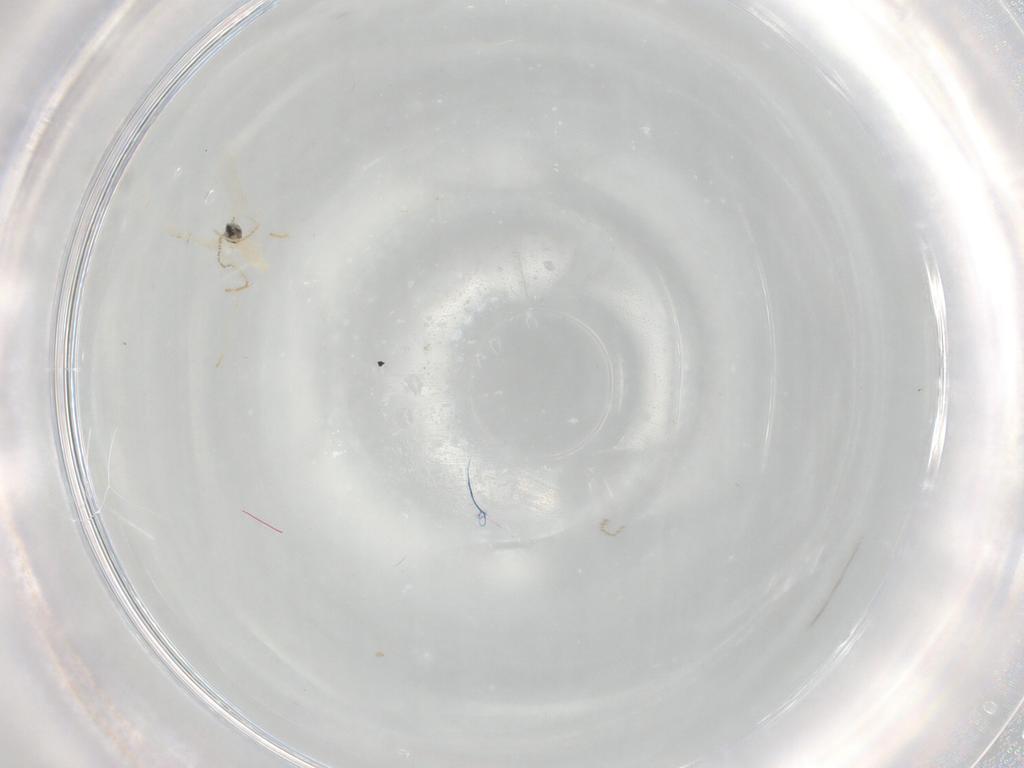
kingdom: Animalia
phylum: Arthropoda
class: Insecta
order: Diptera
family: Cecidomyiidae
